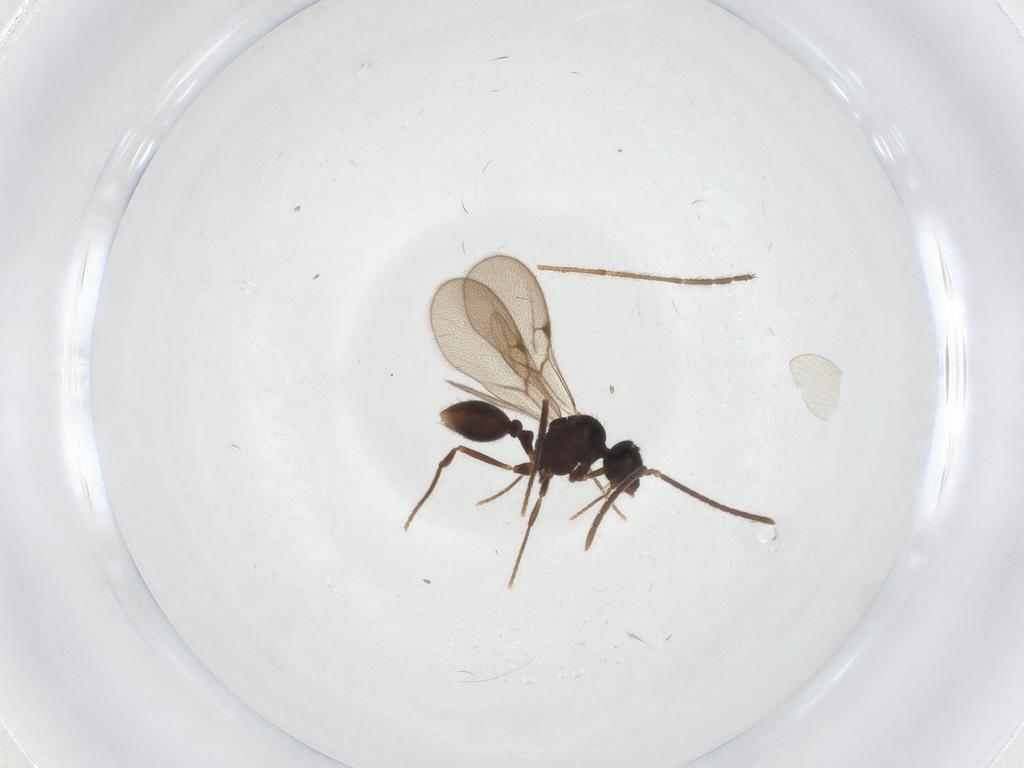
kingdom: Animalia
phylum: Arthropoda
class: Insecta
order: Hymenoptera
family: Formicidae
